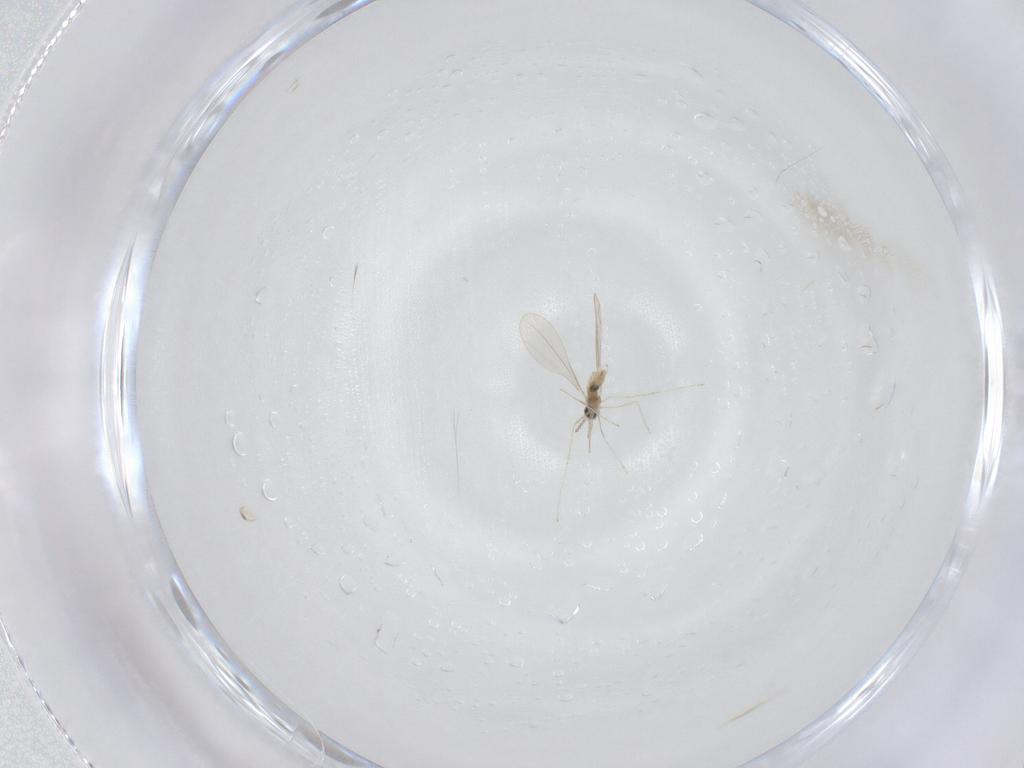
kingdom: Animalia
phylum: Arthropoda
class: Insecta
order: Diptera
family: Cecidomyiidae
